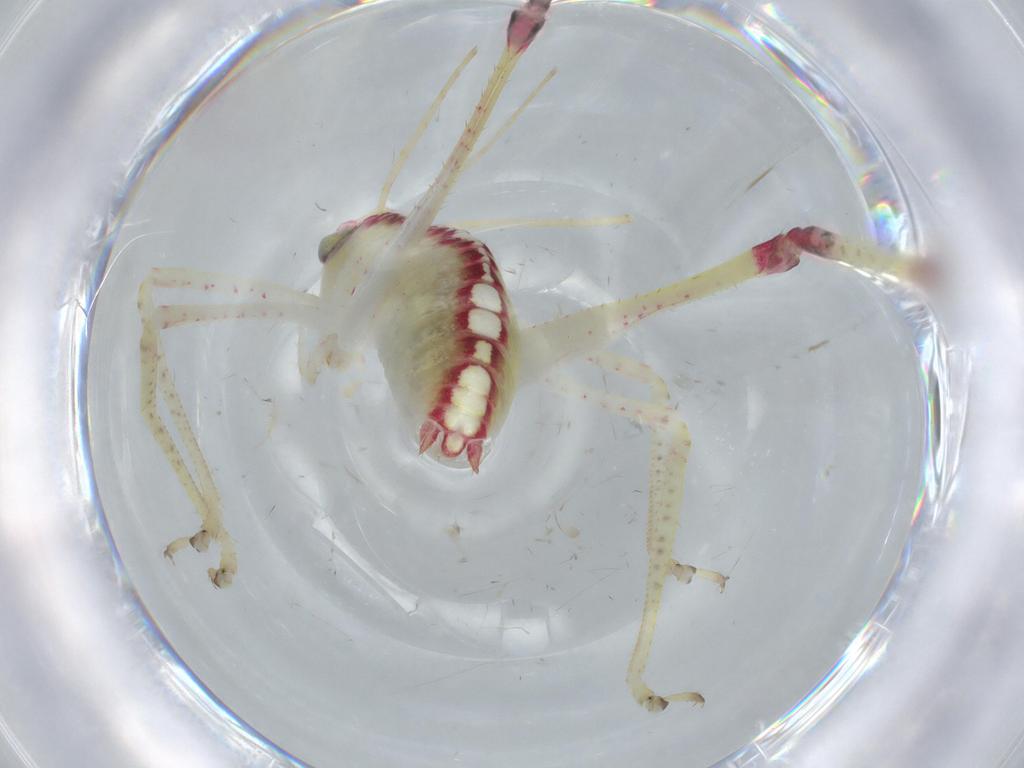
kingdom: Animalia
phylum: Arthropoda
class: Insecta
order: Orthoptera
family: Tettigoniidae
